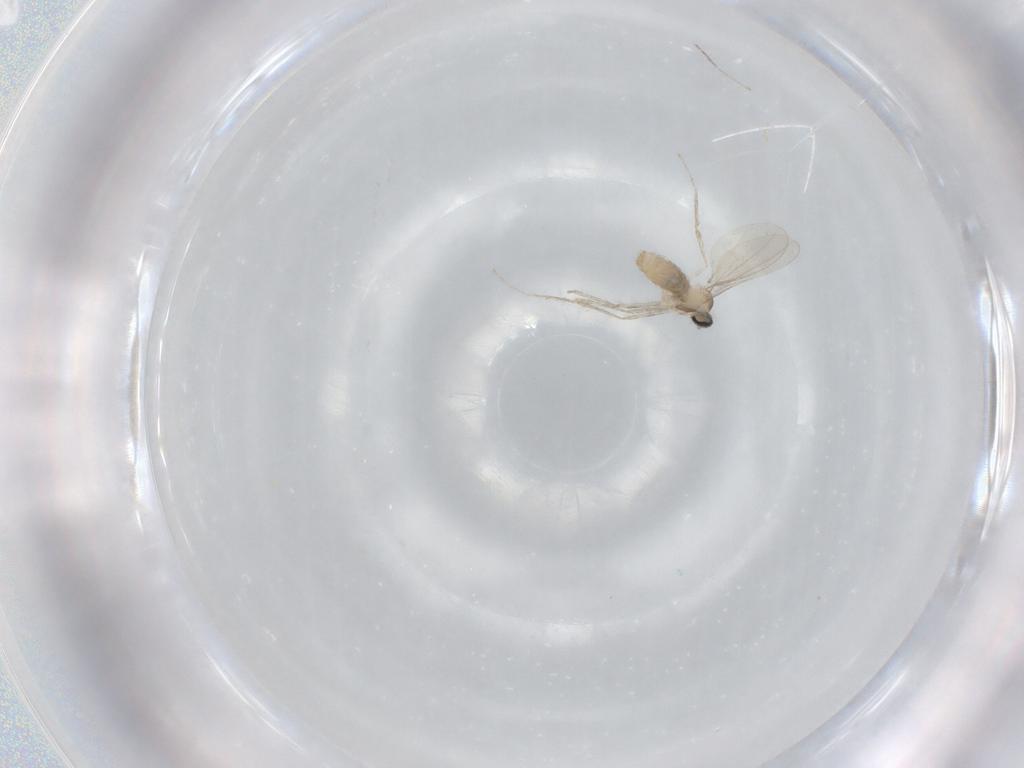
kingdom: Animalia
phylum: Arthropoda
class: Insecta
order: Diptera
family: Cecidomyiidae
